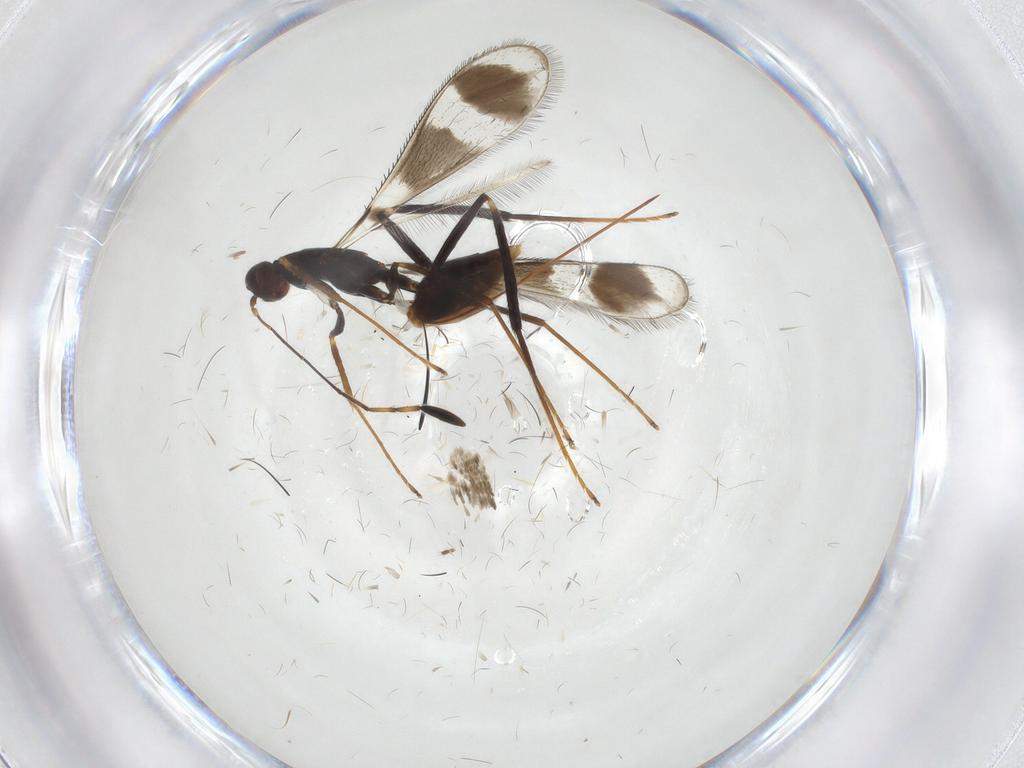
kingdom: Animalia
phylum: Arthropoda
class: Insecta
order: Hymenoptera
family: Mymaridae
